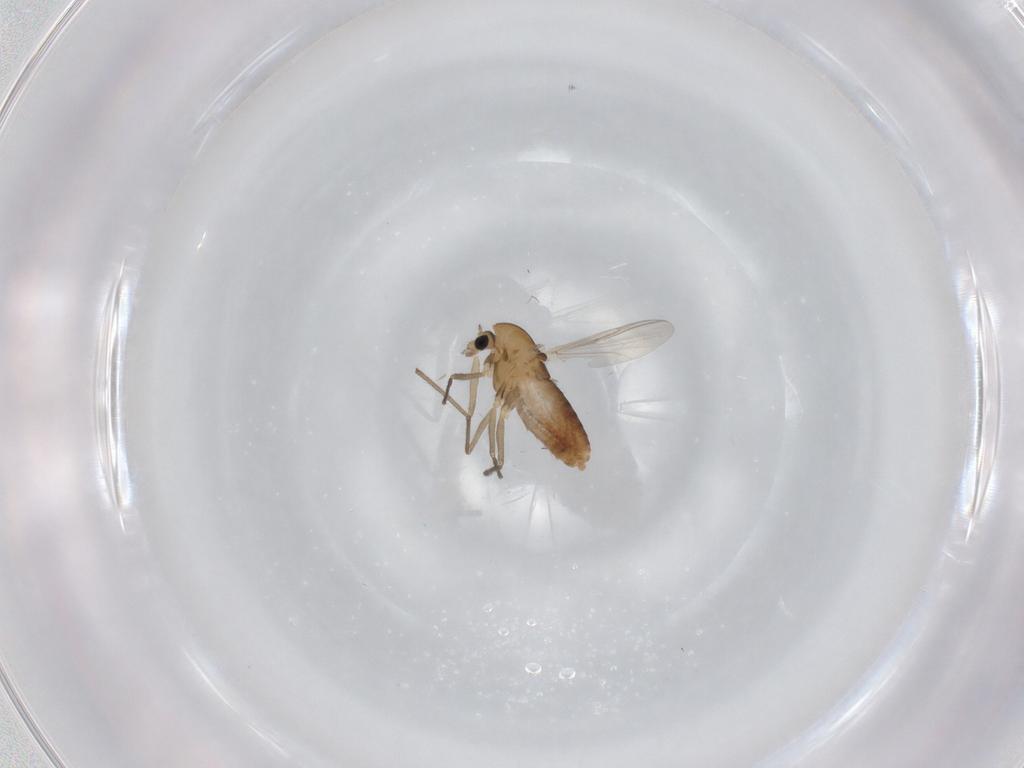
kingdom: Animalia
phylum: Arthropoda
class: Insecta
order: Diptera
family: Chironomidae
